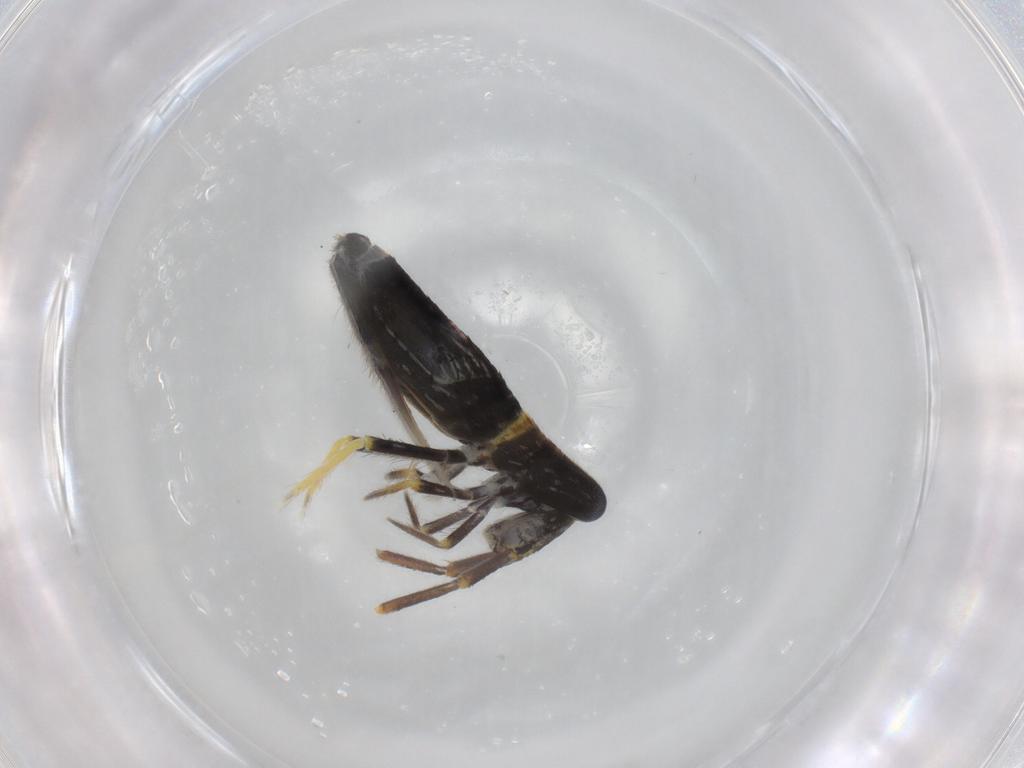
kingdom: Animalia
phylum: Arthropoda
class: Collembola
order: Entomobryomorpha
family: Entomobryidae
